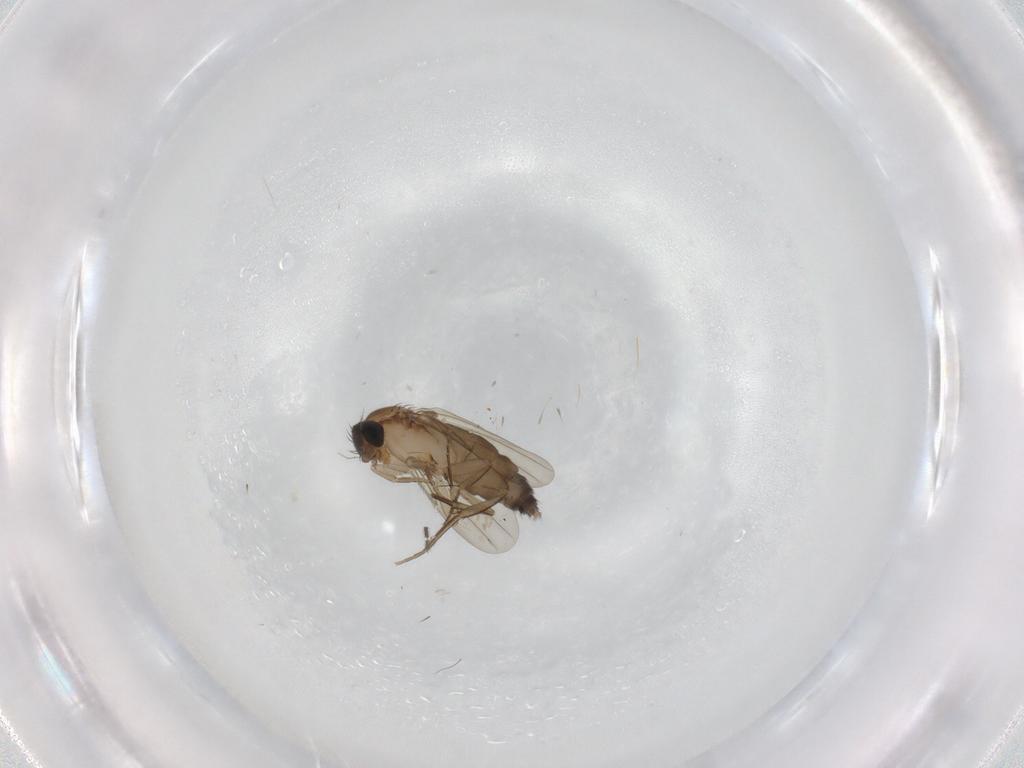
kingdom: Animalia
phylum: Arthropoda
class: Insecta
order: Diptera
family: Phoridae
